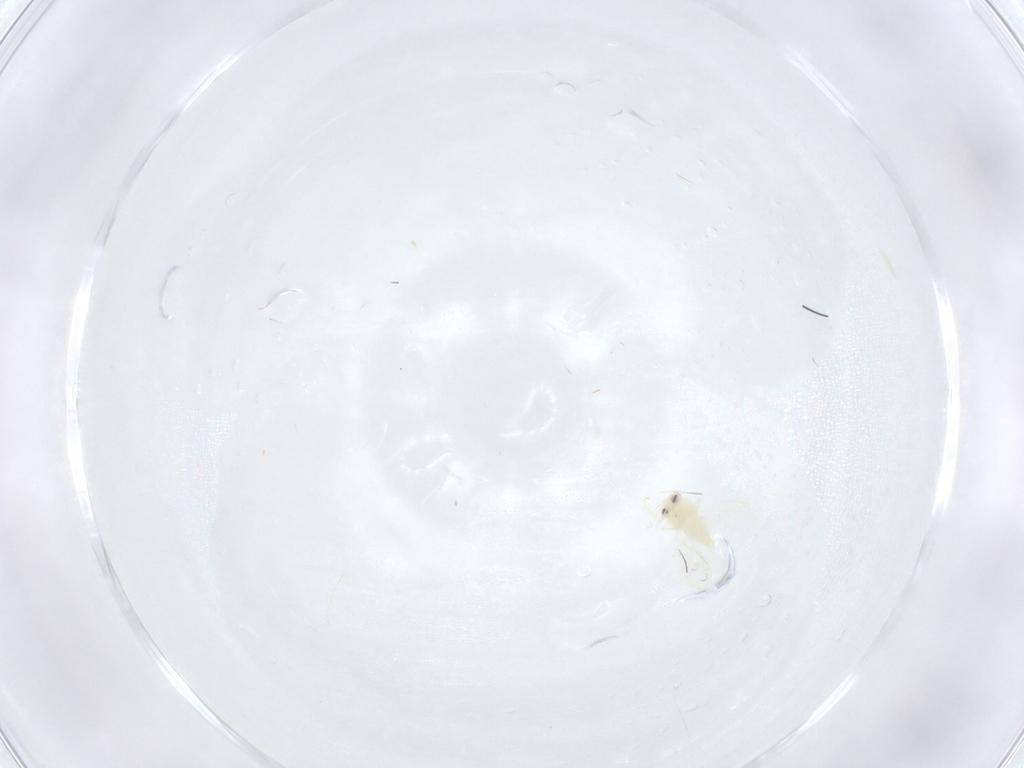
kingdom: Animalia
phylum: Arthropoda
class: Insecta
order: Hemiptera
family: Aleyrodidae
